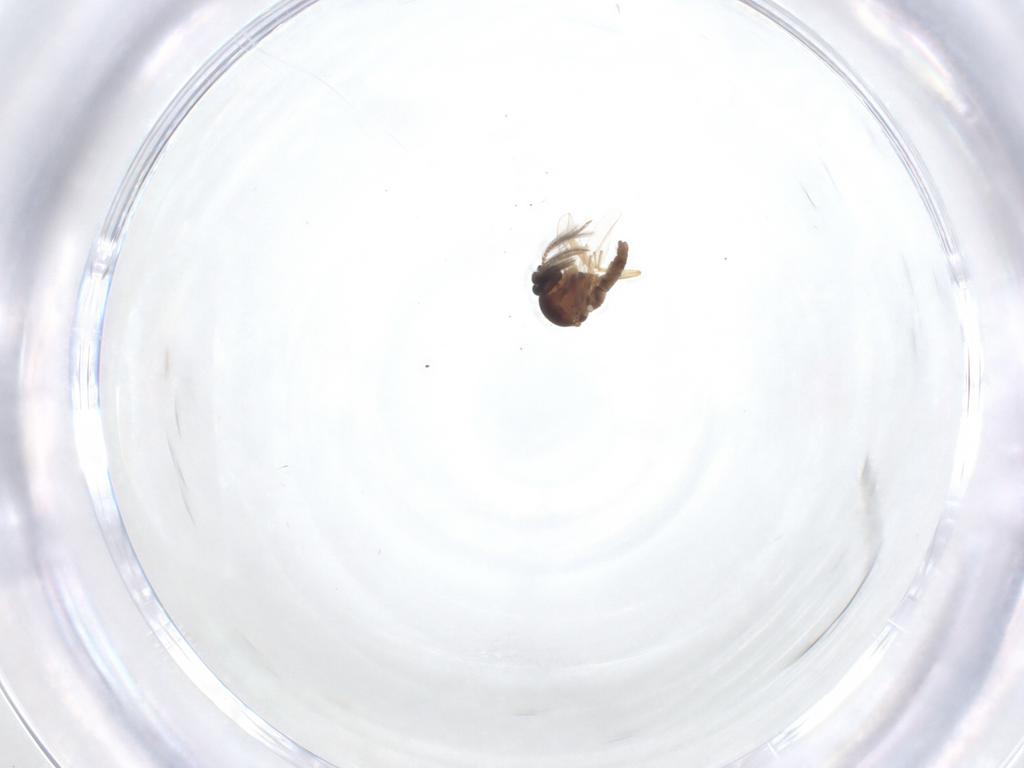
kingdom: Animalia
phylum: Arthropoda
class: Insecta
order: Diptera
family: Ceratopogonidae
